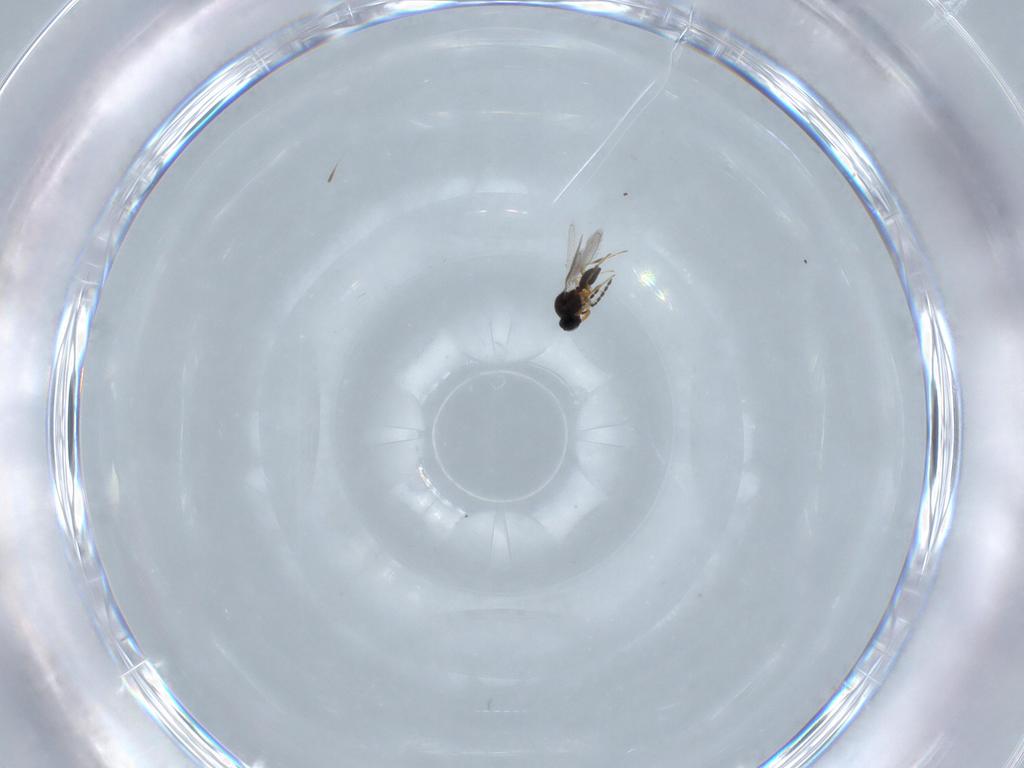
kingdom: Animalia
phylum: Arthropoda
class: Insecta
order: Hymenoptera
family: Platygastridae
